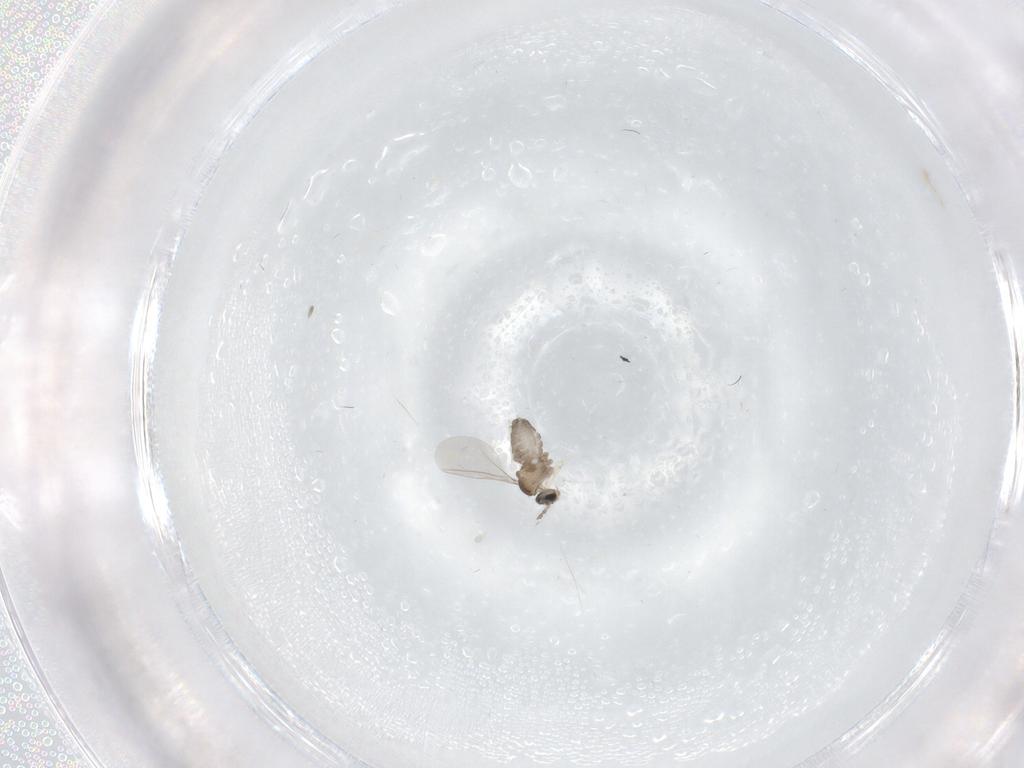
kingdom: Animalia
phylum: Arthropoda
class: Insecta
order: Diptera
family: Cecidomyiidae
